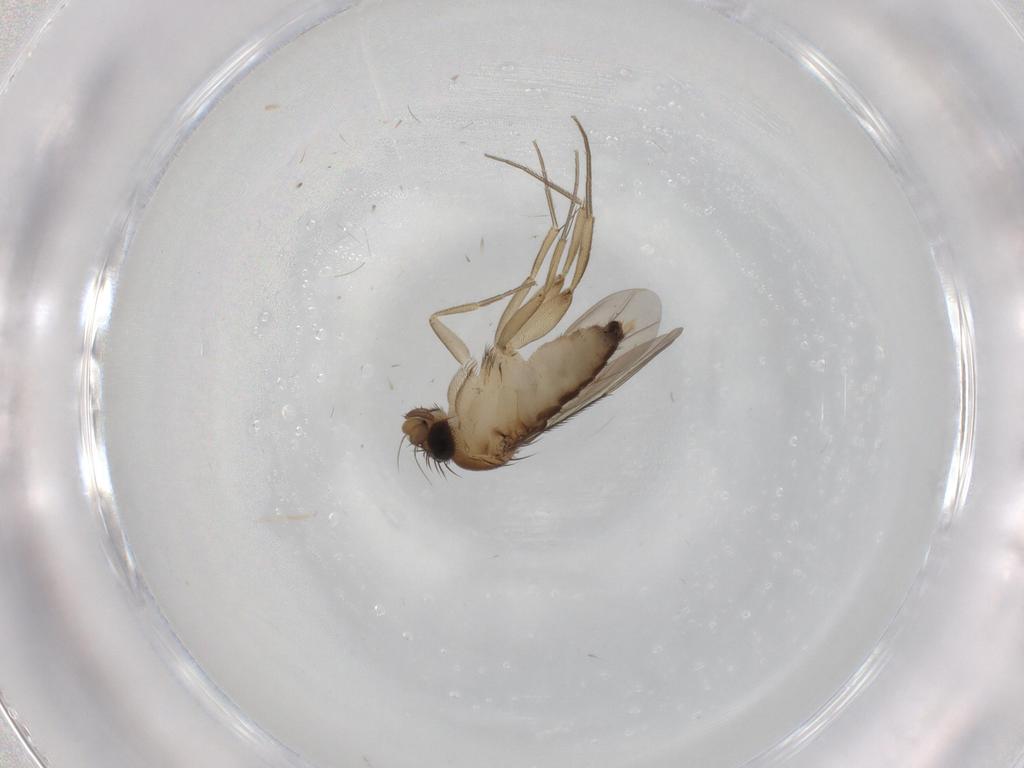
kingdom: Animalia
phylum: Arthropoda
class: Insecta
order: Diptera
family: Phoridae
